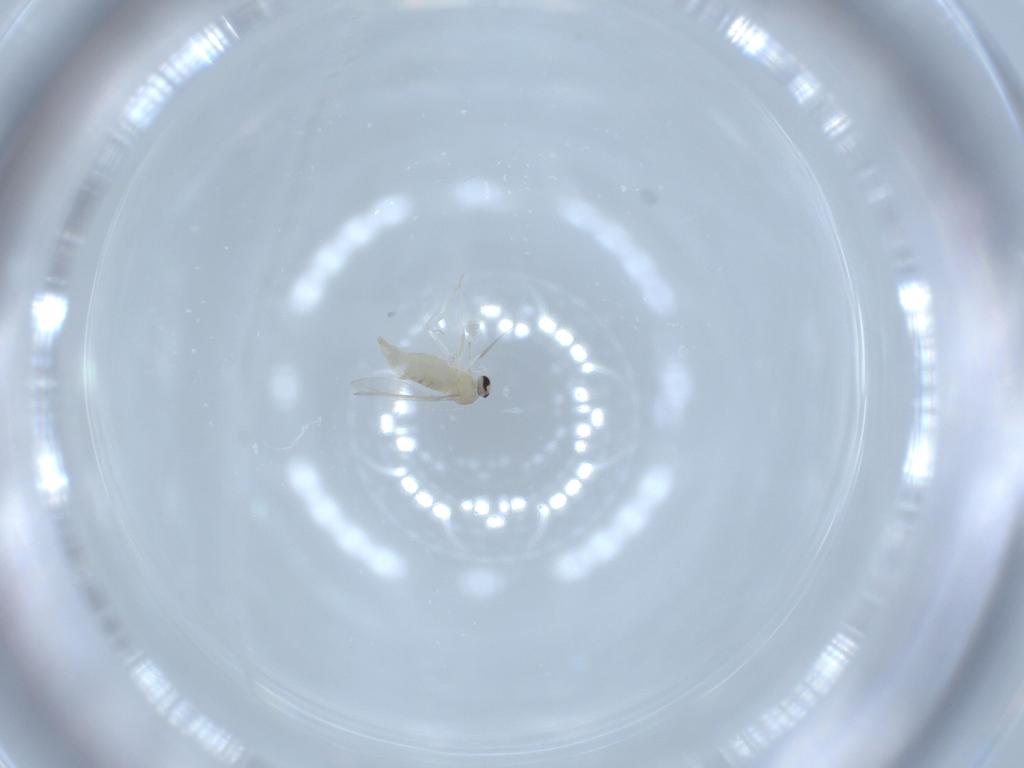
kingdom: Animalia
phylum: Arthropoda
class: Insecta
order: Diptera
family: Cecidomyiidae
